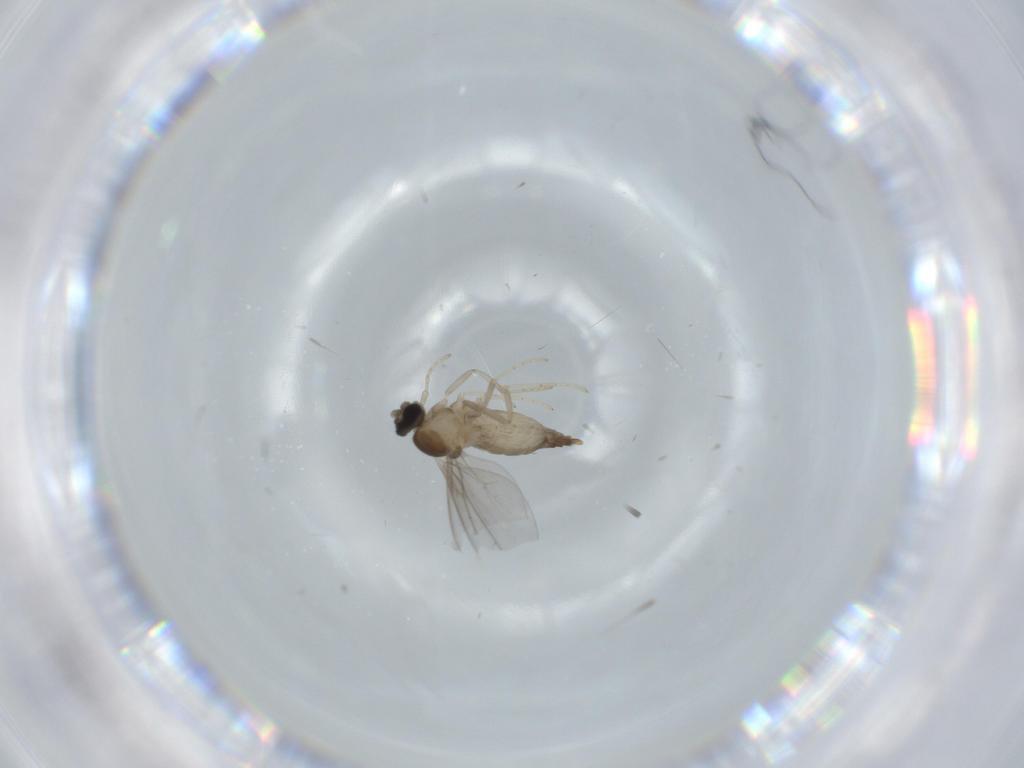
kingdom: Animalia
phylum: Arthropoda
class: Insecta
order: Diptera
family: Cecidomyiidae
